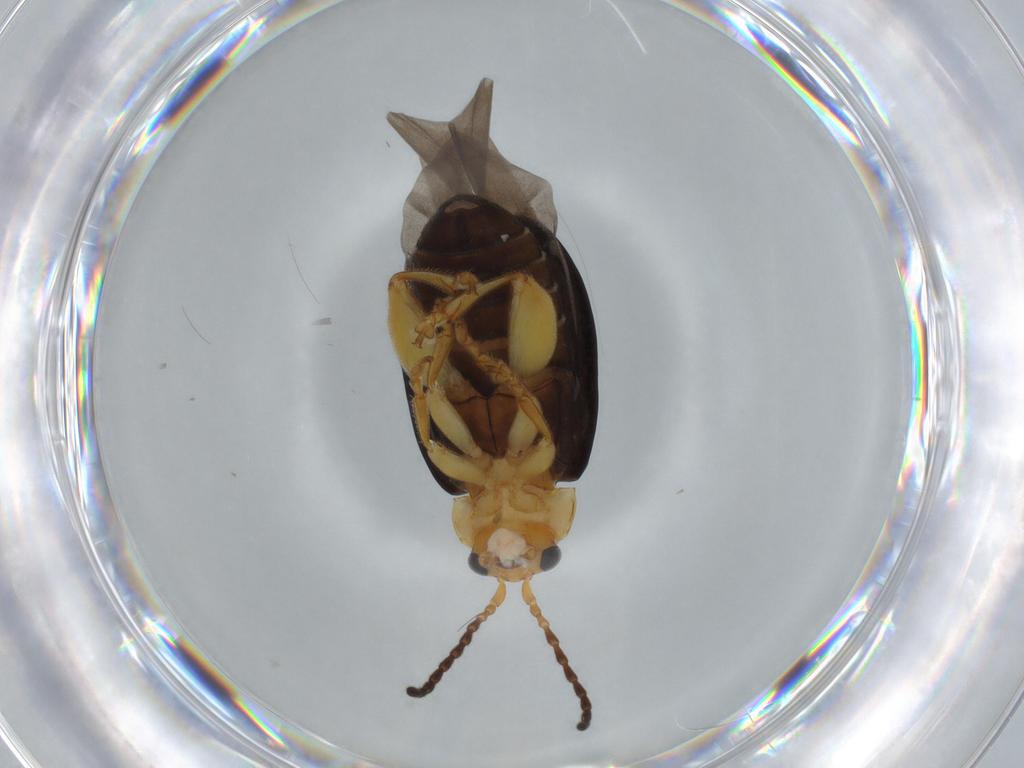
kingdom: Animalia
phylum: Arthropoda
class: Insecta
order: Coleoptera
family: Chrysomelidae
